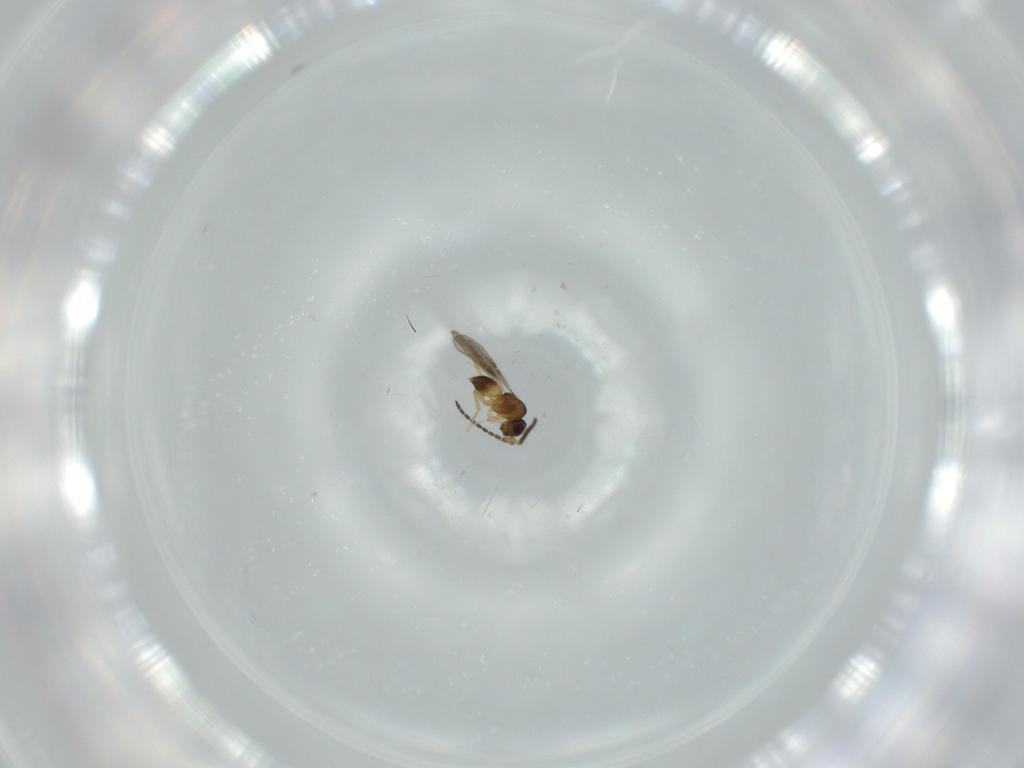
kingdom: Animalia
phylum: Arthropoda
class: Insecta
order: Hymenoptera
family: Ceraphronidae
